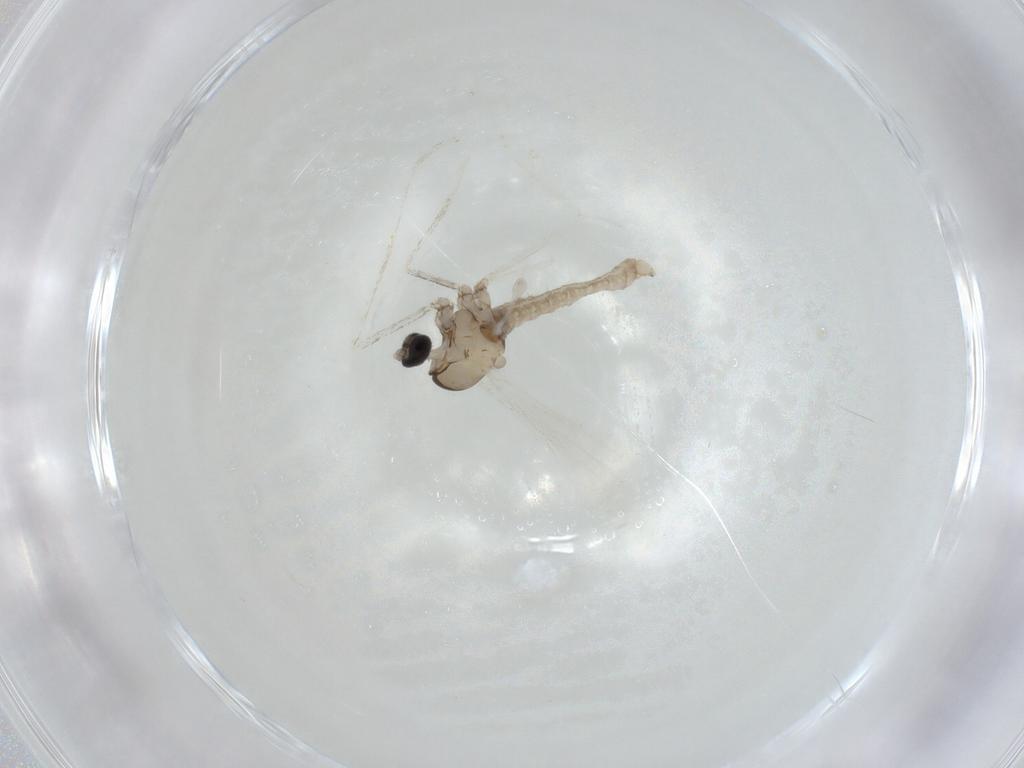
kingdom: Animalia
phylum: Arthropoda
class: Insecta
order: Diptera
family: Cecidomyiidae
